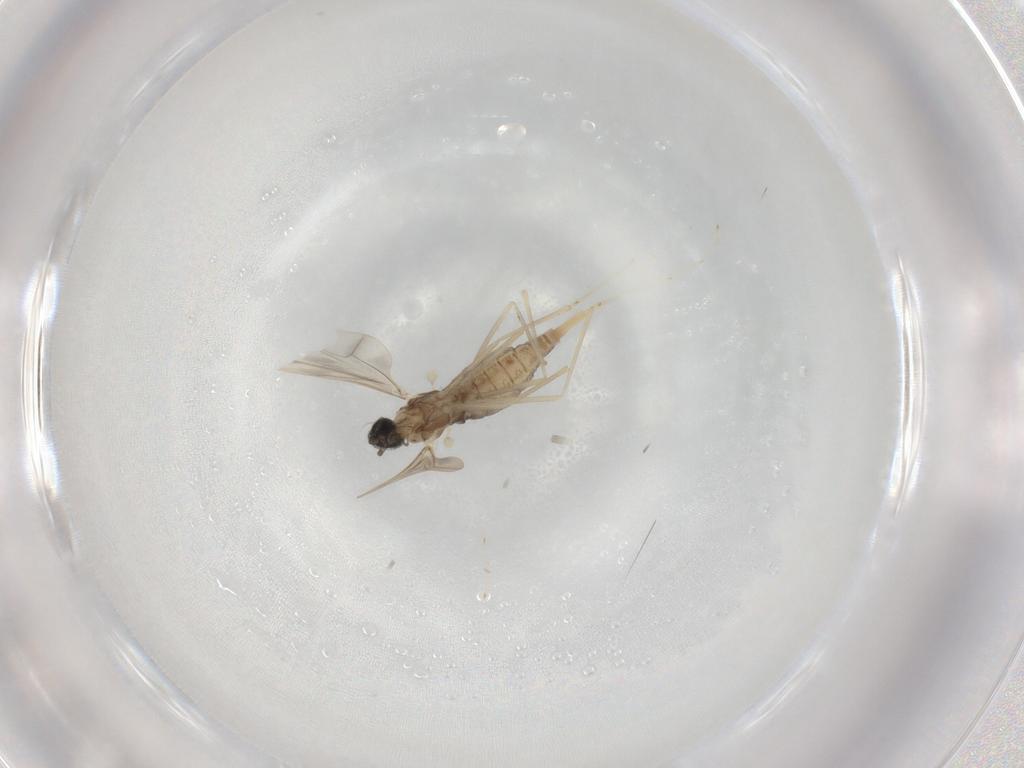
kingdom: Animalia
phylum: Arthropoda
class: Insecta
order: Diptera
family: Cecidomyiidae
